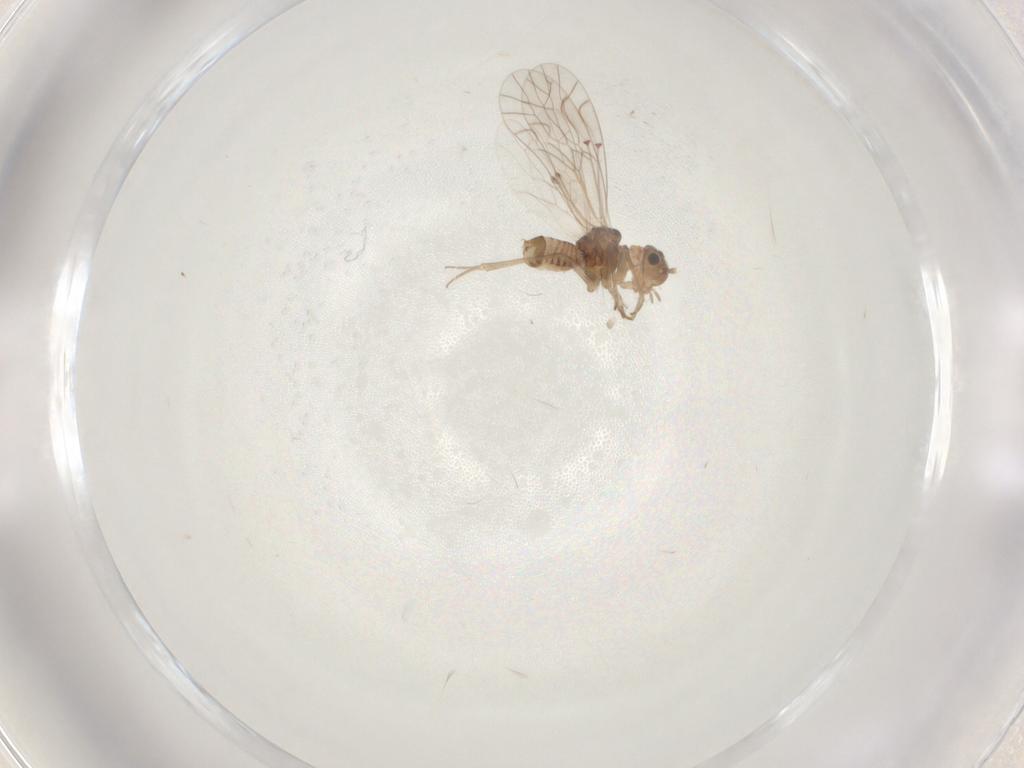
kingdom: Animalia
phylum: Arthropoda
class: Insecta
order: Psocodea
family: Lachesillidae
